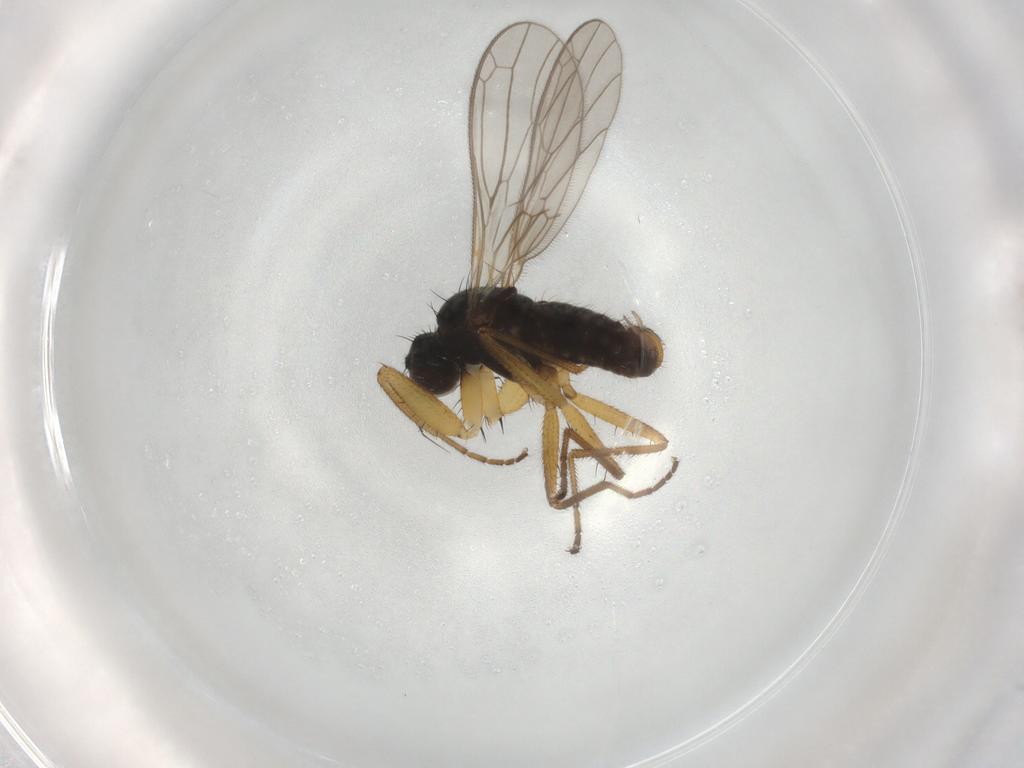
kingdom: Animalia
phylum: Arthropoda
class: Insecta
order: Diptera
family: Empididae
